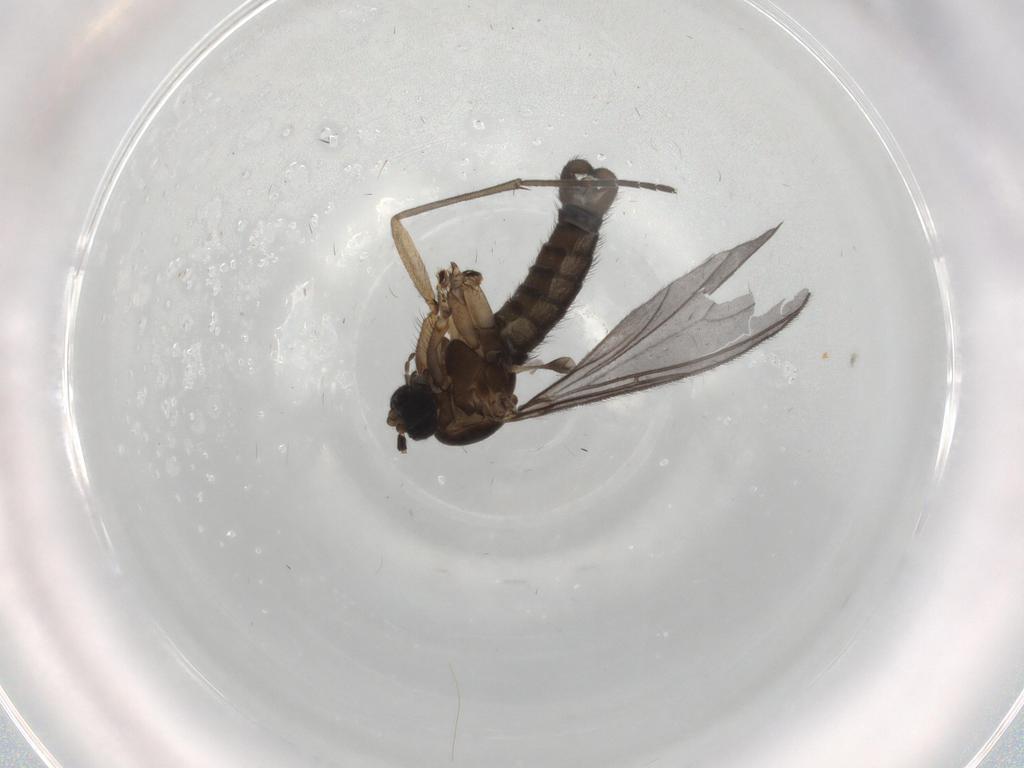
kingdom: Animalia
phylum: Arthropoda
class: Insecta
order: Diptera
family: Sciaridae
